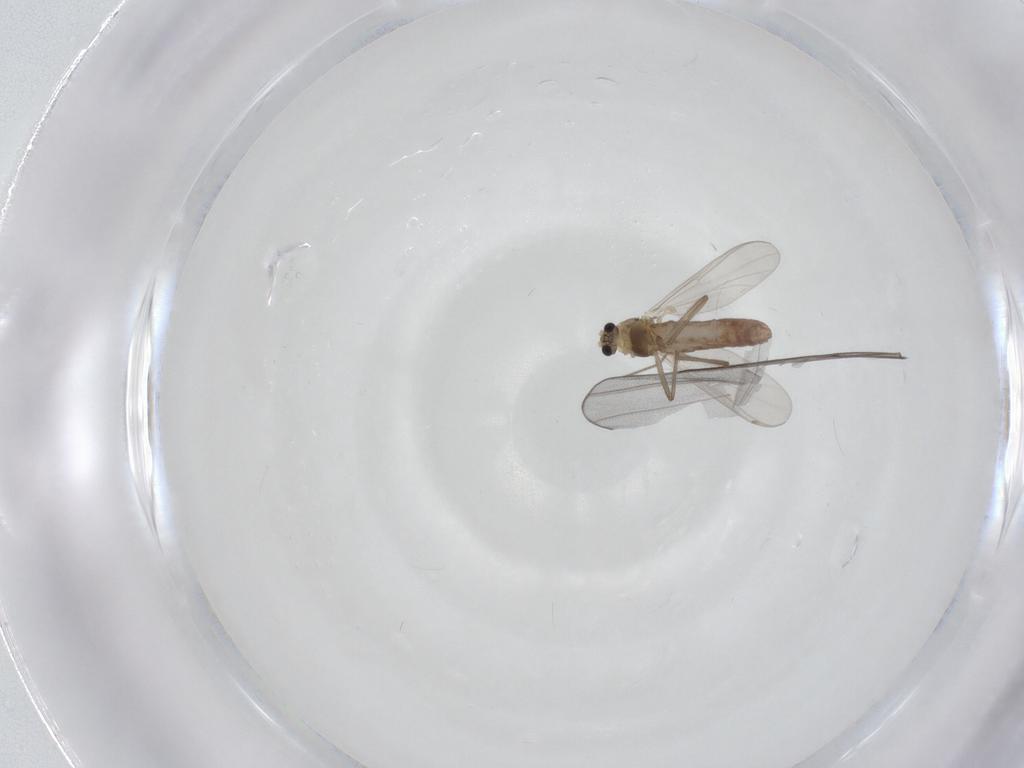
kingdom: Animalia
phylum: Arthropoda
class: Insecta
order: Diptera
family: Chironomidae
